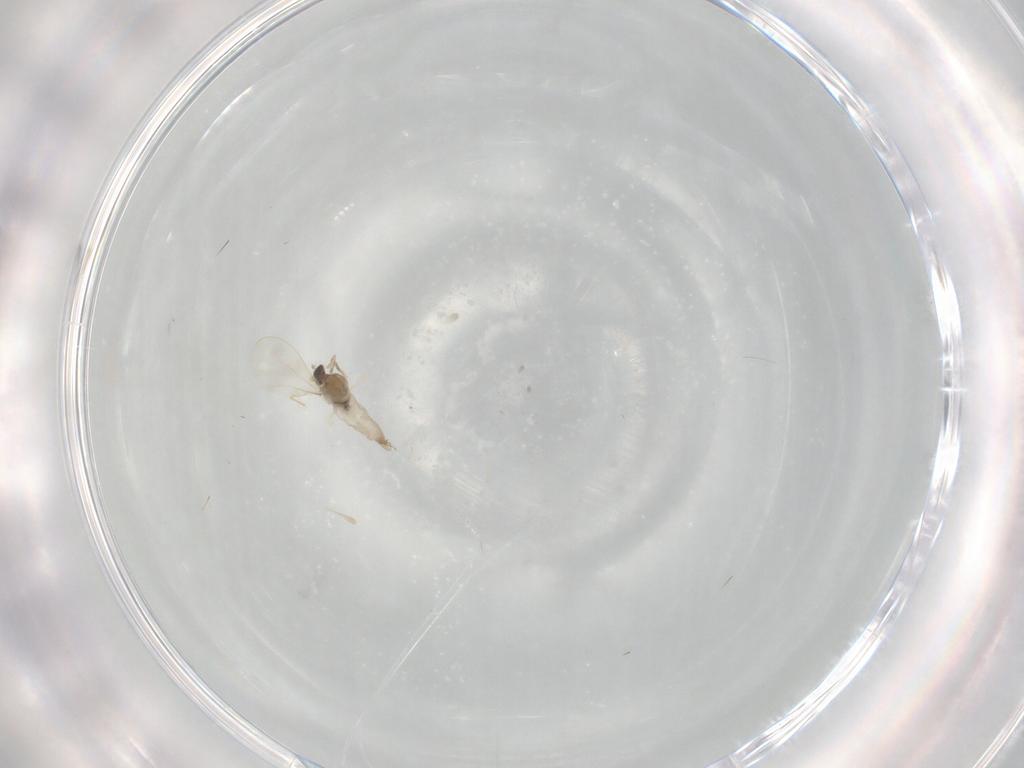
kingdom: Animalia
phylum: Arthropoda
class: Insecta
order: Diptera
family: Cecidomyiidae
